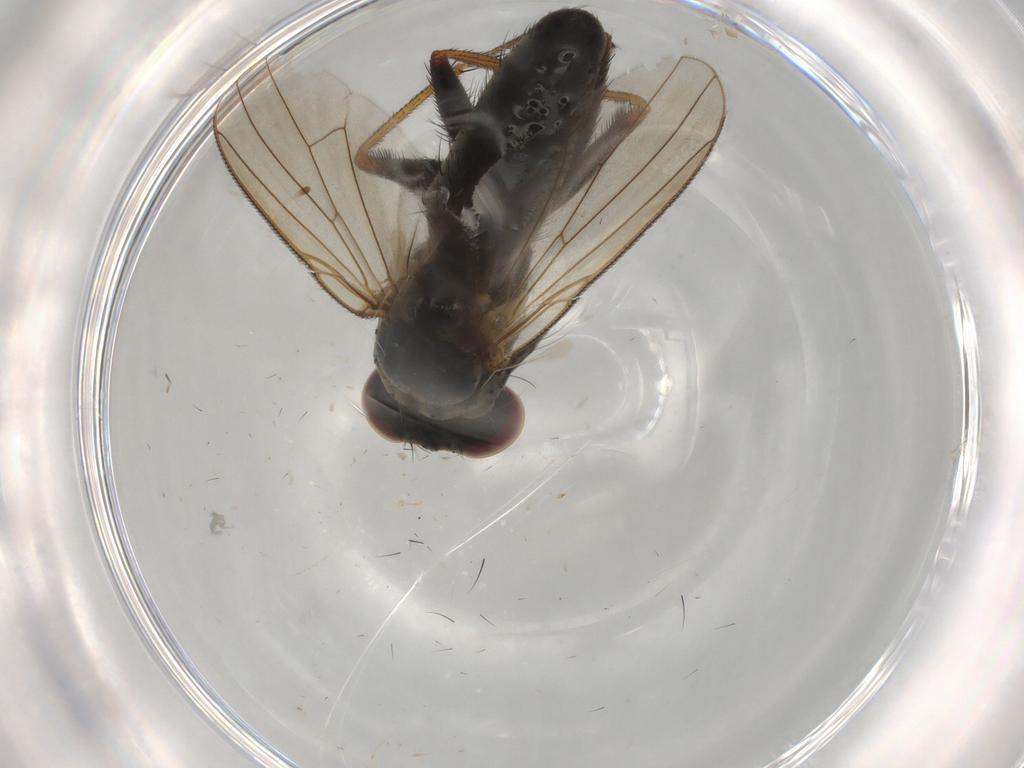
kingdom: Animalia
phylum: Arthropoda
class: Insecta
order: Diptera
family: Muscidae
